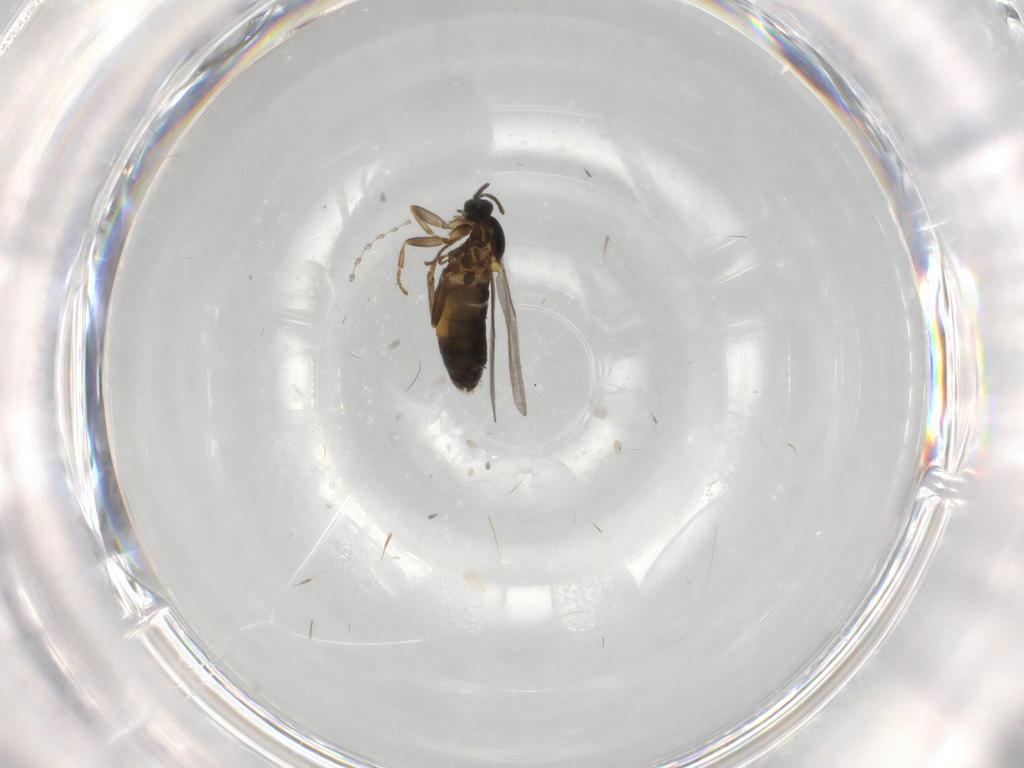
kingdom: Animalia
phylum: Arthropoda
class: Insecta
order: Diptera
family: Scatopsidae
